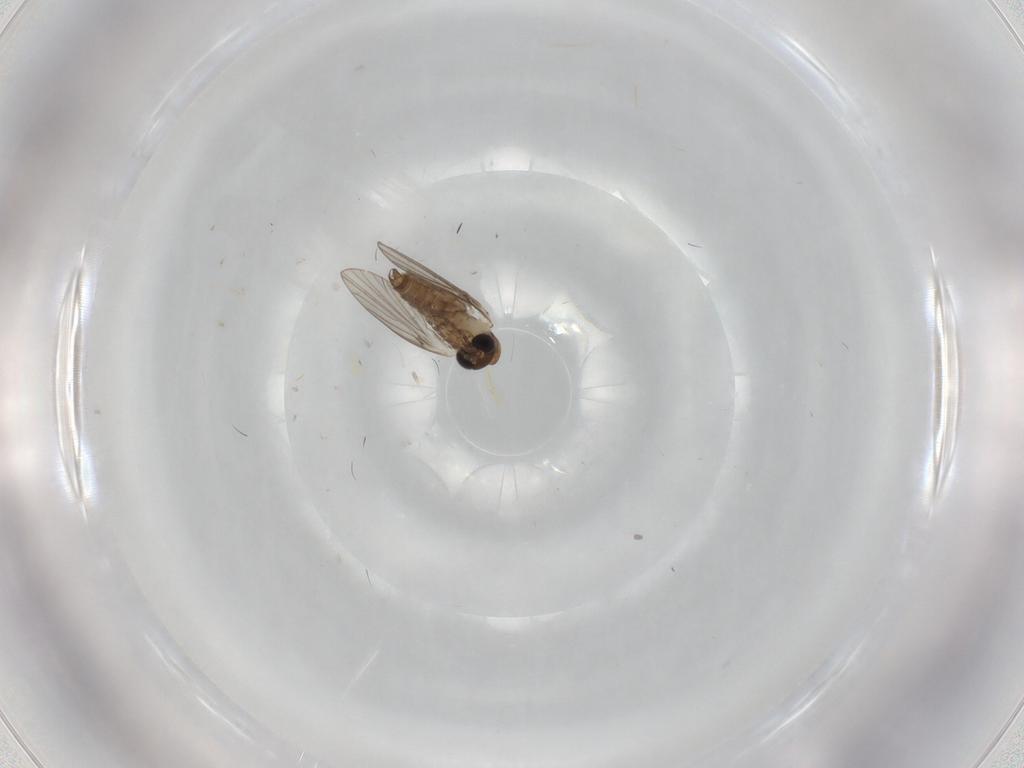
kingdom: Animalia
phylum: Arthropoda
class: Insecta
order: Diptera
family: Psychodidae
